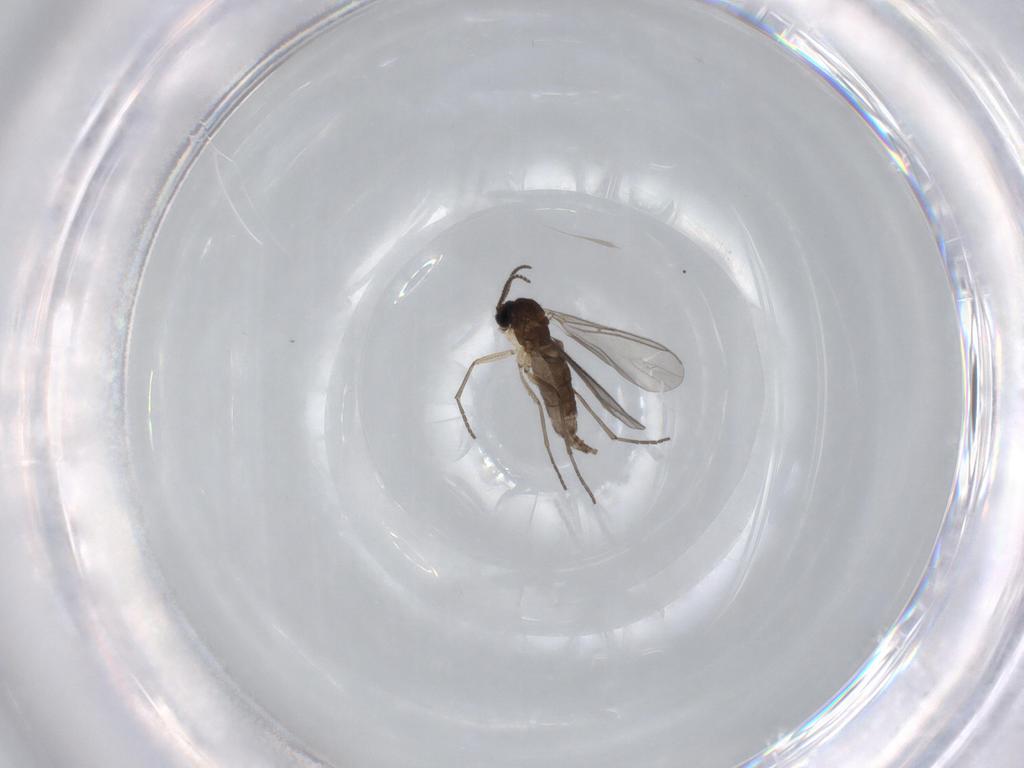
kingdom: Animalia
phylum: Arthropoda
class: Insecta
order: Diptera
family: Sciaridae
